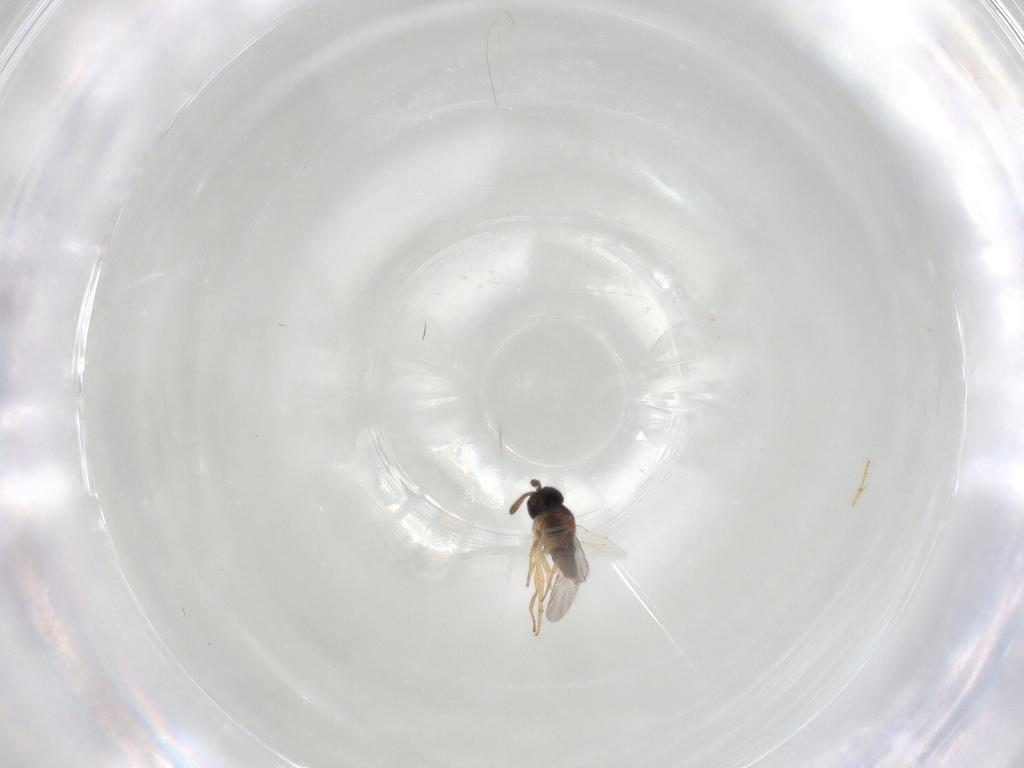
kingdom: Animalia
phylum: Arthropoda
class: Insecta
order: Hymenoptera
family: Encyrtidae
